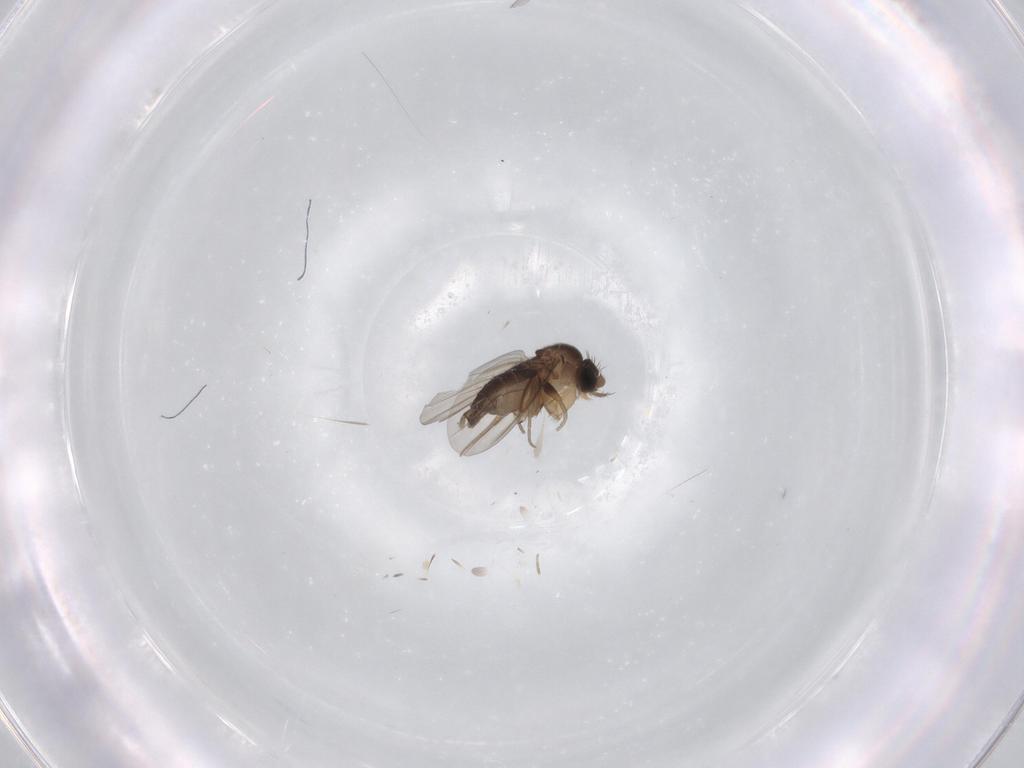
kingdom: Animalia
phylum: Arthropoda
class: Insecta
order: Diptera
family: Phoridae
